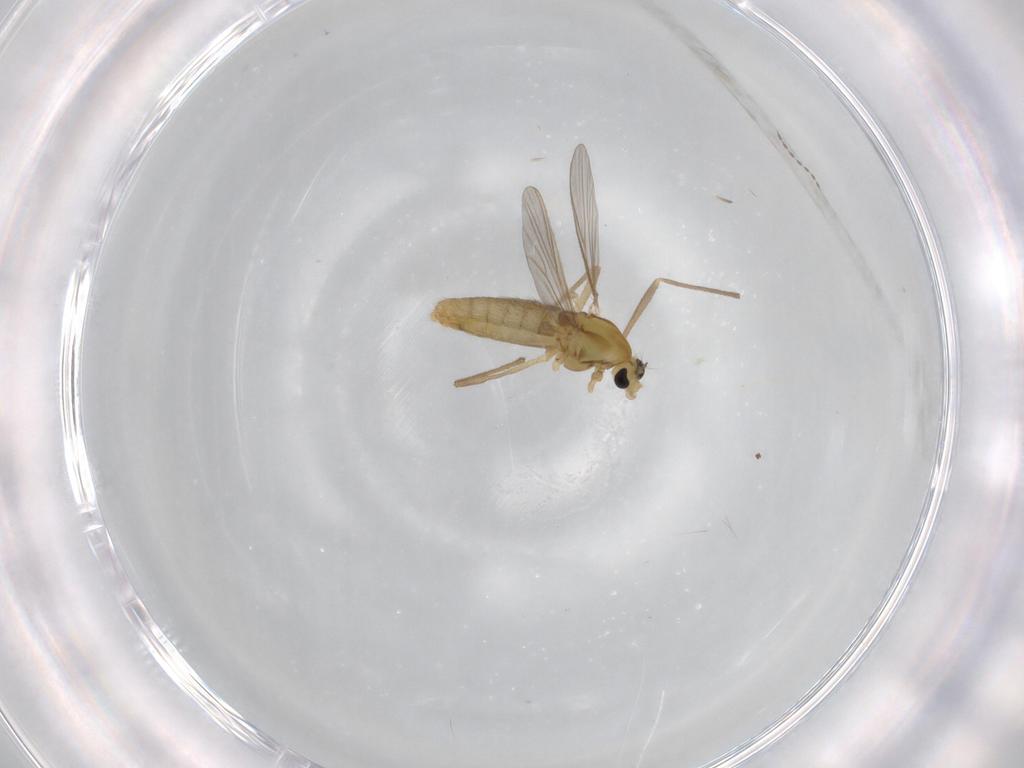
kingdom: Animalia
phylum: Arthropoda
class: Insecta
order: Diptera
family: Chironomidae
